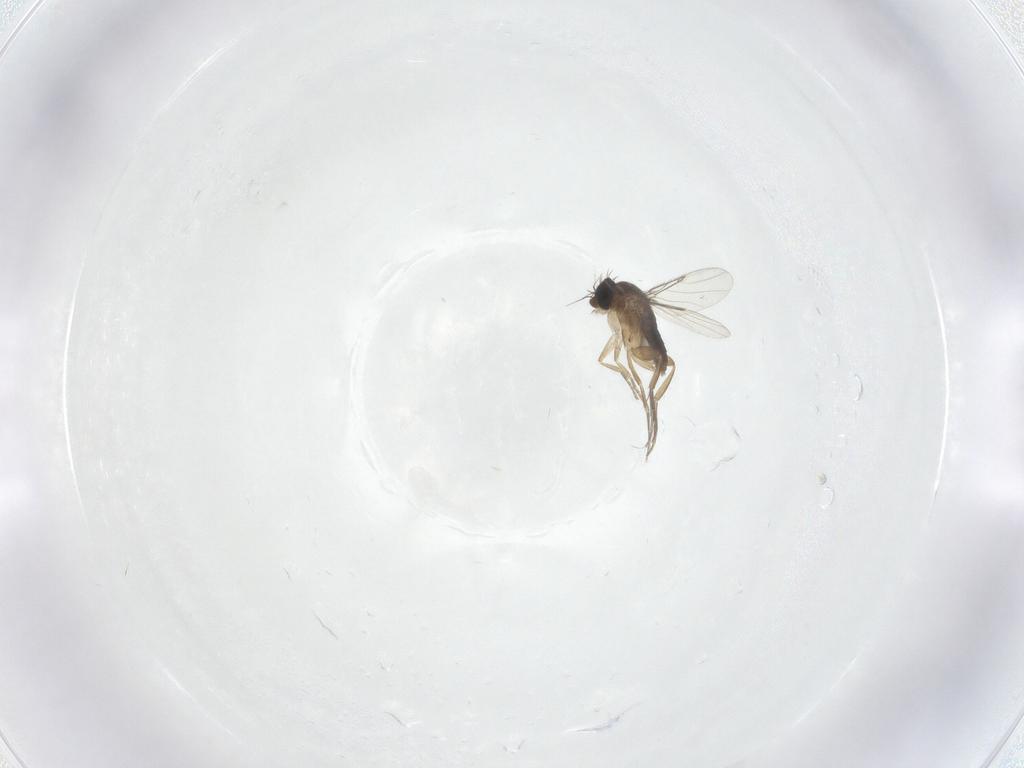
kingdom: Animalia
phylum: Arthropoda
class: Insecta
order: Diptera
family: Phoridae
